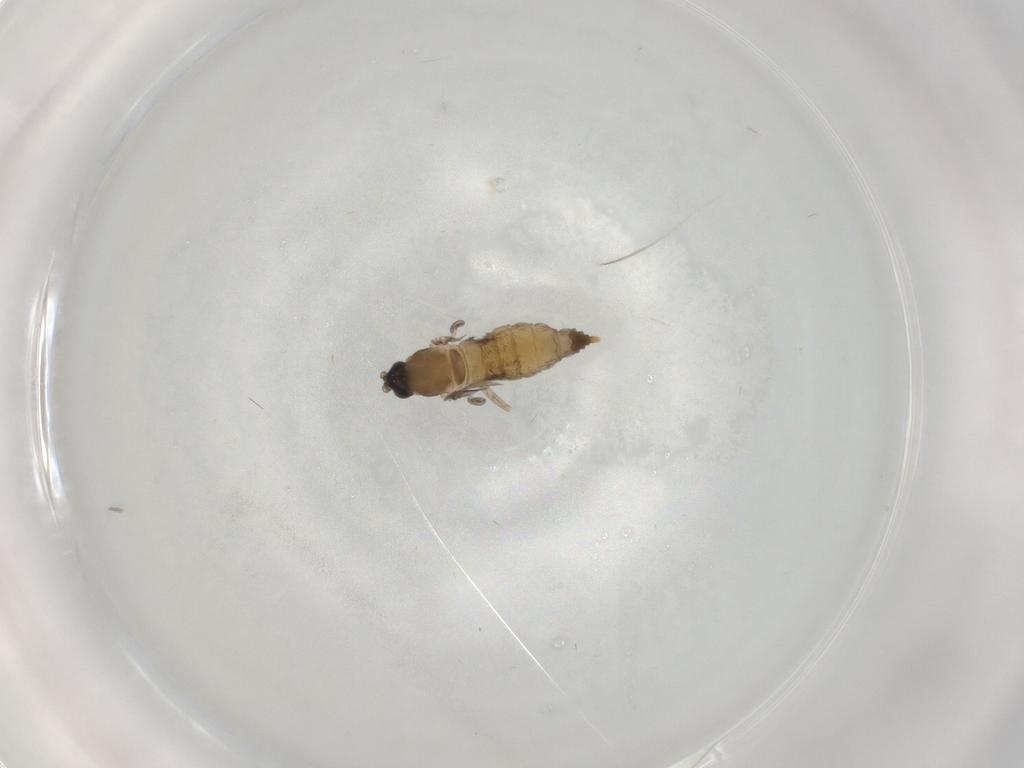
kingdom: Animalia
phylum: Arthropoda
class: Insecta
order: Diptera
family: Cecidomyiidae
